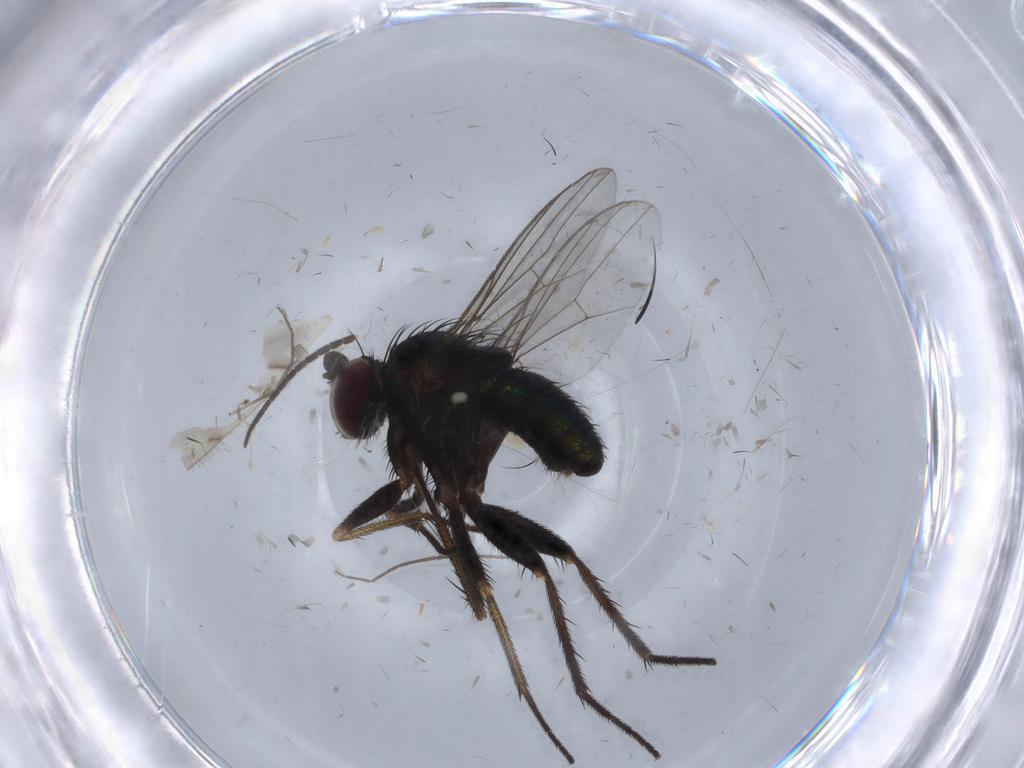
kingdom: Animalia
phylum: Arthropoda
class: Insecta
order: Diptera
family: Dolichopodidae
